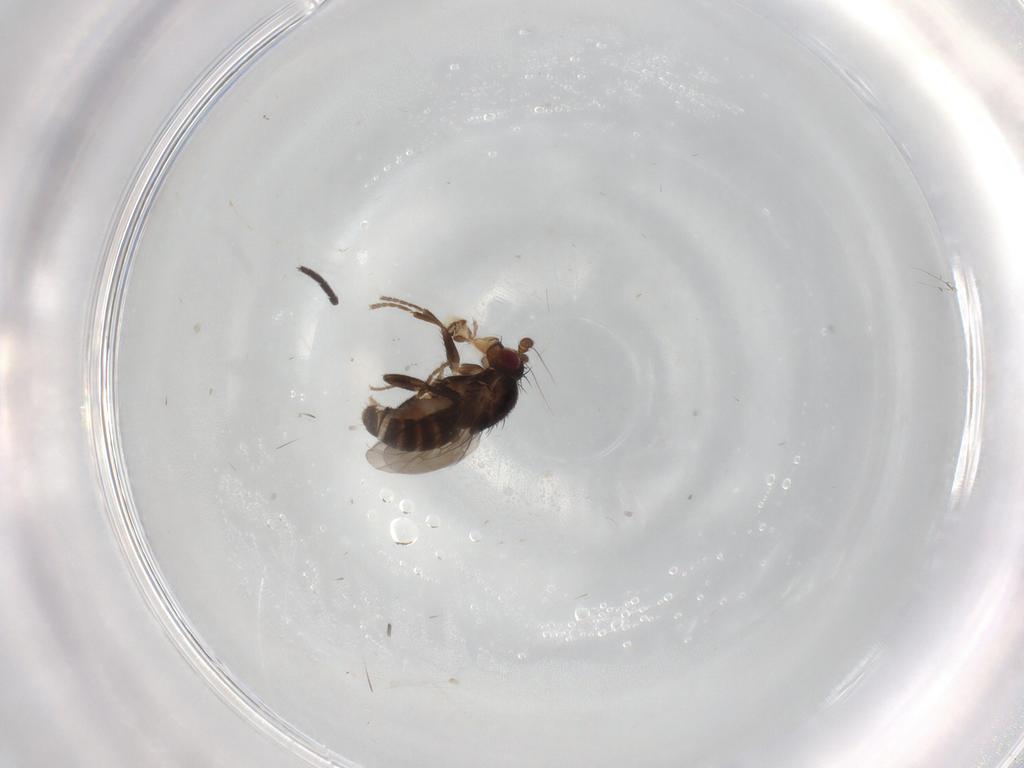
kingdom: Animalia
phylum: Arthropoda
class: Insecta
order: Diptera
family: Sphaeroceridae
